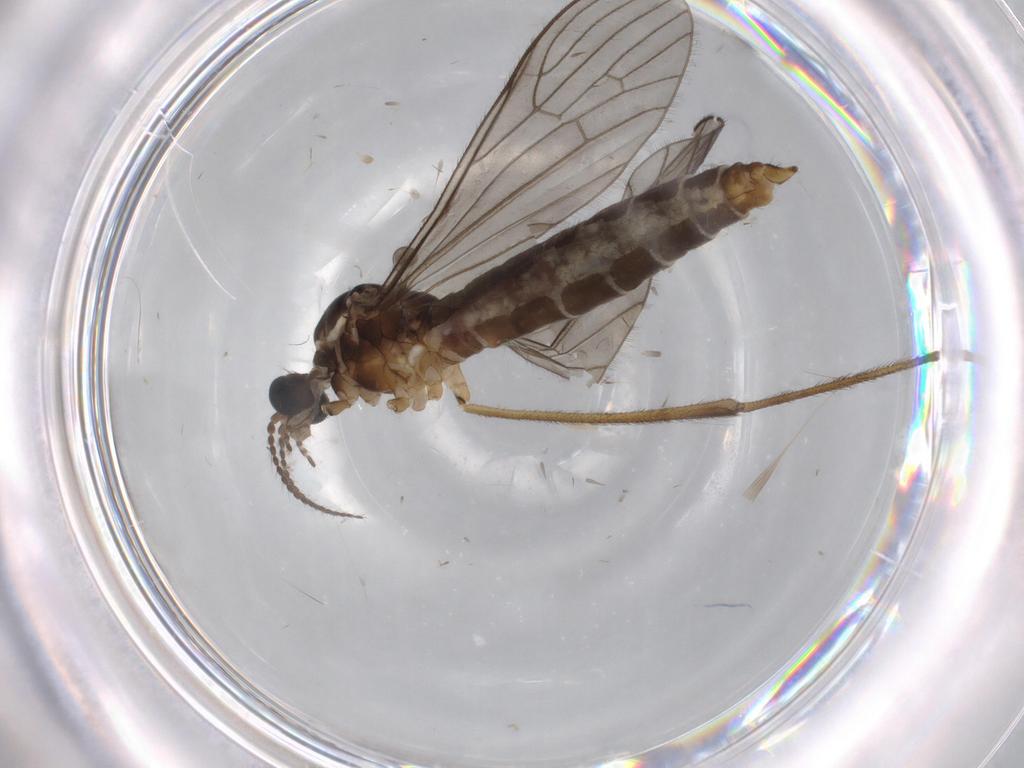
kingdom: Animalia
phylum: Arthropoda
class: Insecta
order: Diptera
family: Limoniidae
